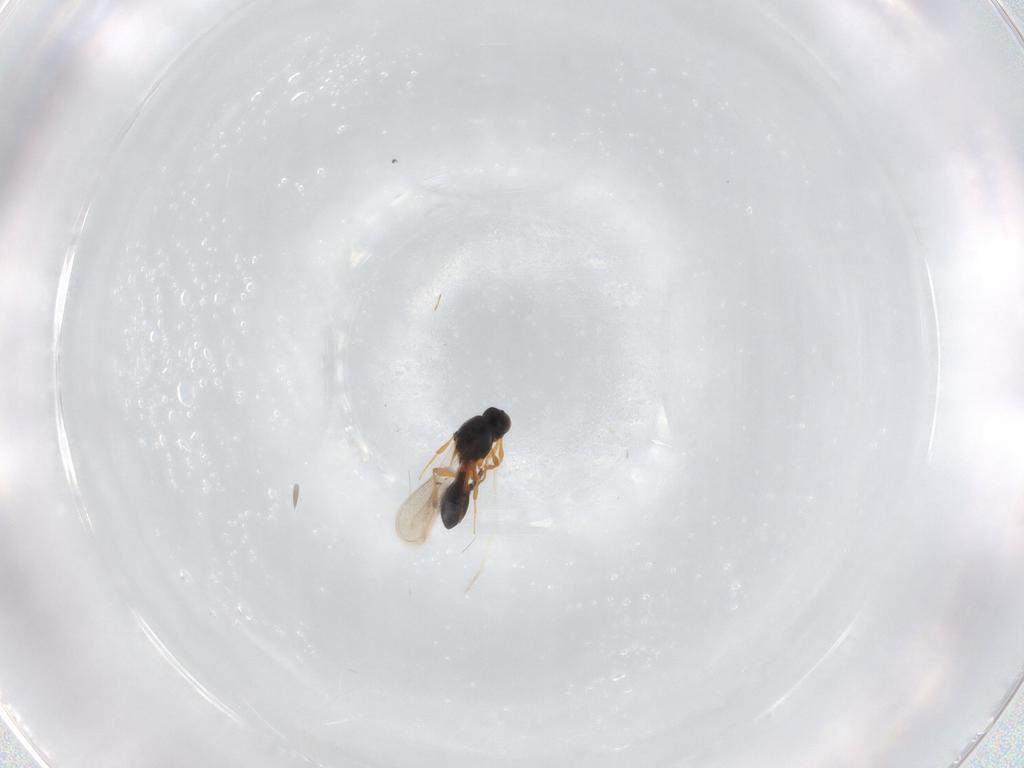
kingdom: Animalia
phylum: Arthropoda
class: Insecta
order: Hymenoptera
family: Platygastridae
